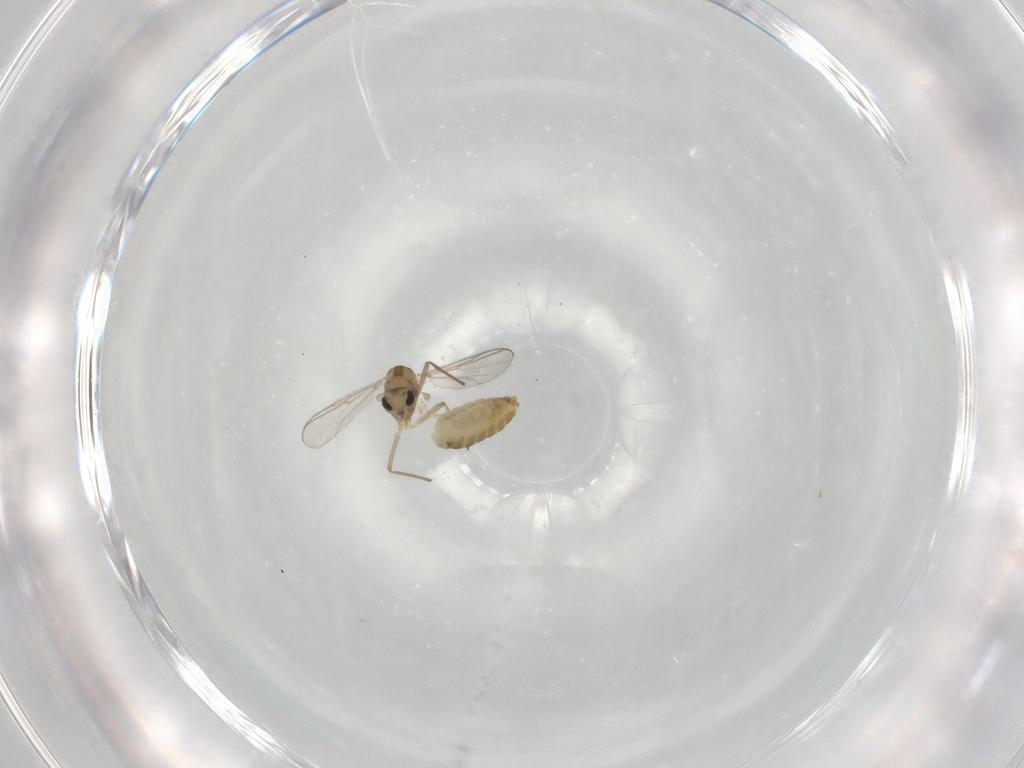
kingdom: Animalia
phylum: Arthropoda
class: Insecta
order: Diptera
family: Chironomidae
